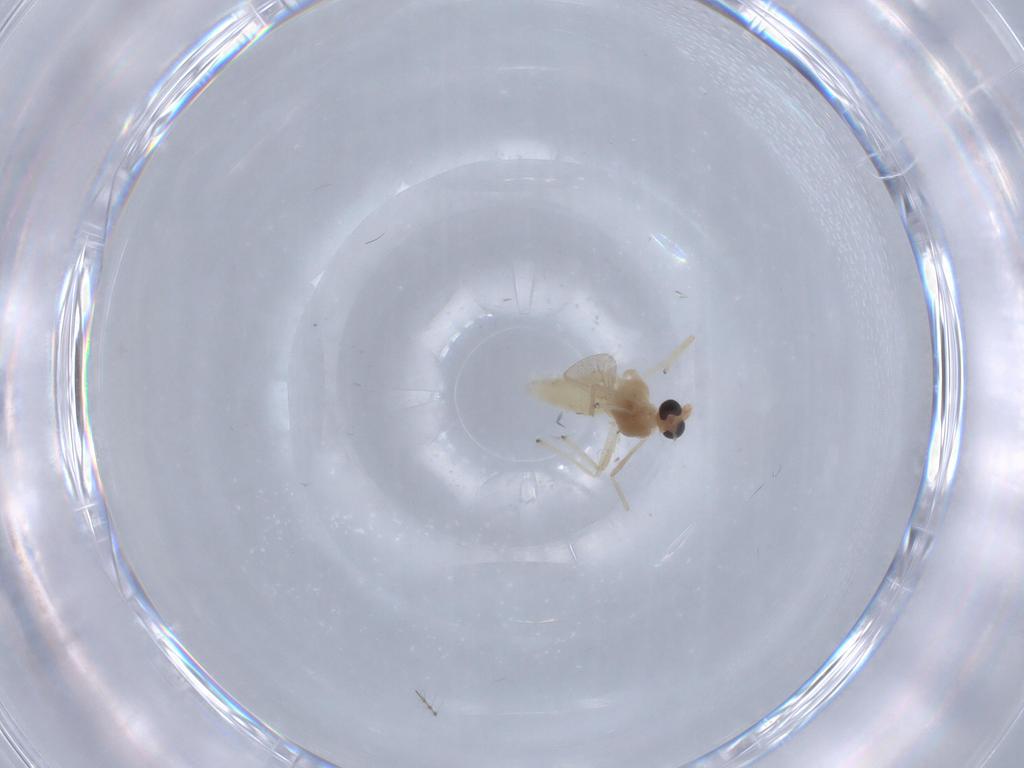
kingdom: Animalia
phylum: Arthropoda
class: Insecta
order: Diptera
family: Chironomidae
